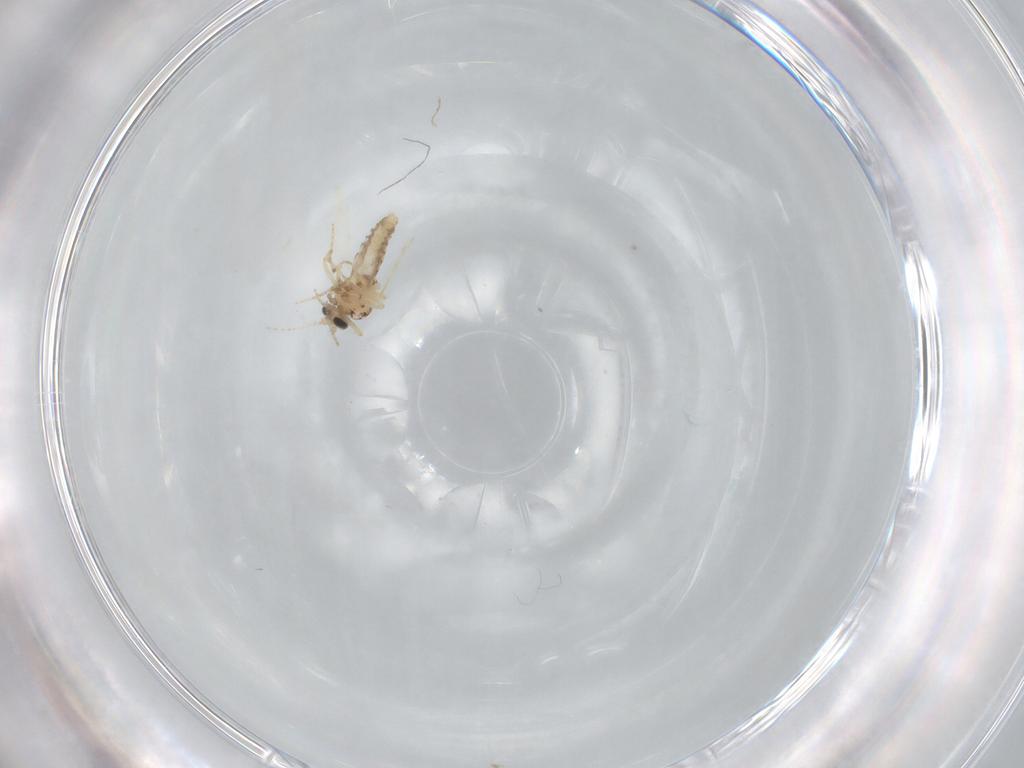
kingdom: Animalia
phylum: Arthropoda
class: Insecta
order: Diptera
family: Ceratopogonidae
